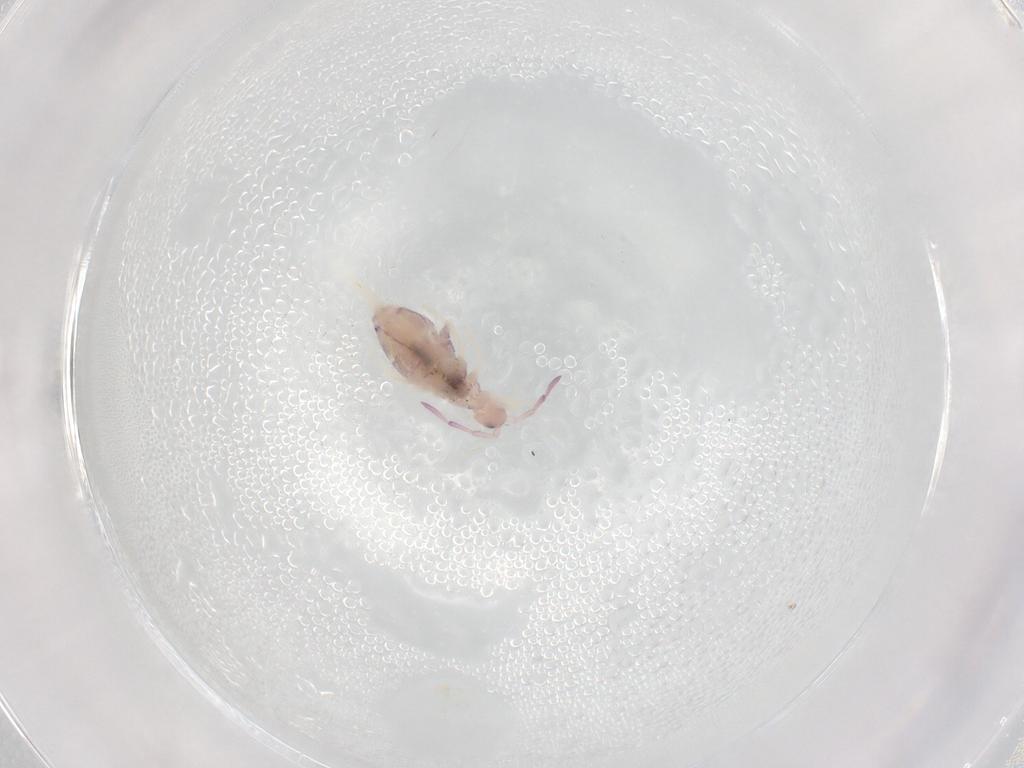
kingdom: Animalia
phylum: Arthropoda
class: Collembola
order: Entomobryomorpha
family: Entomobryidae
